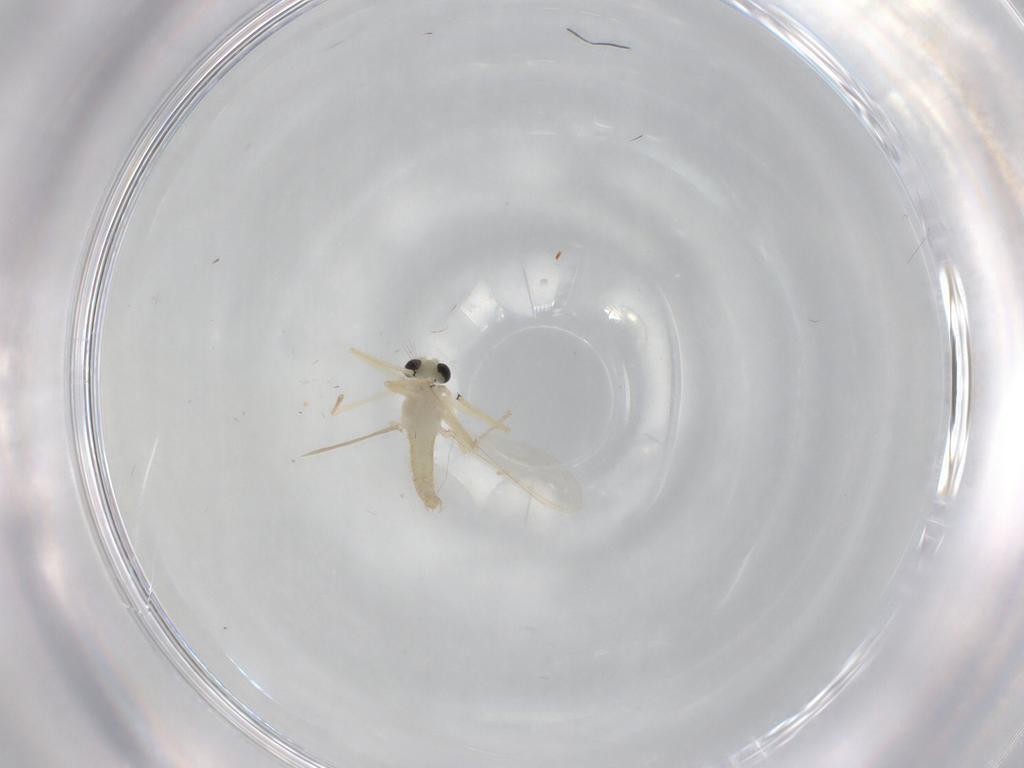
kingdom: Animalia
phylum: Arthropoda
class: Insecta
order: Diptera
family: Chironomidae
